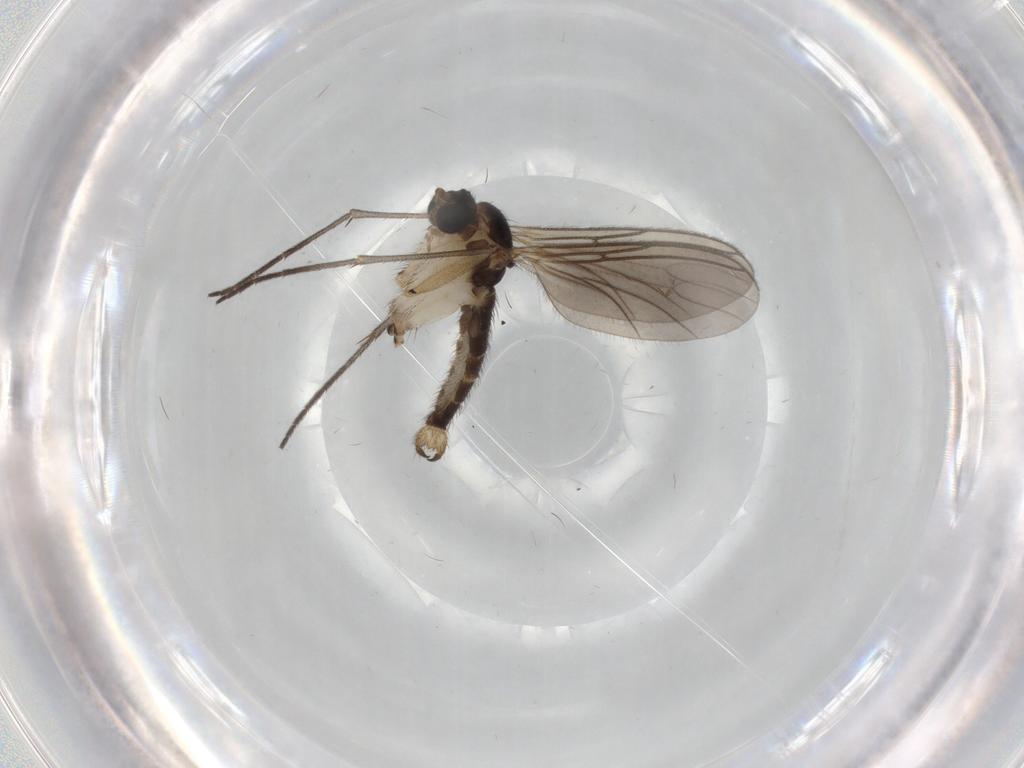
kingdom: Animalia
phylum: Arthropoda
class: Insecta
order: Diptera
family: Sciaridae
